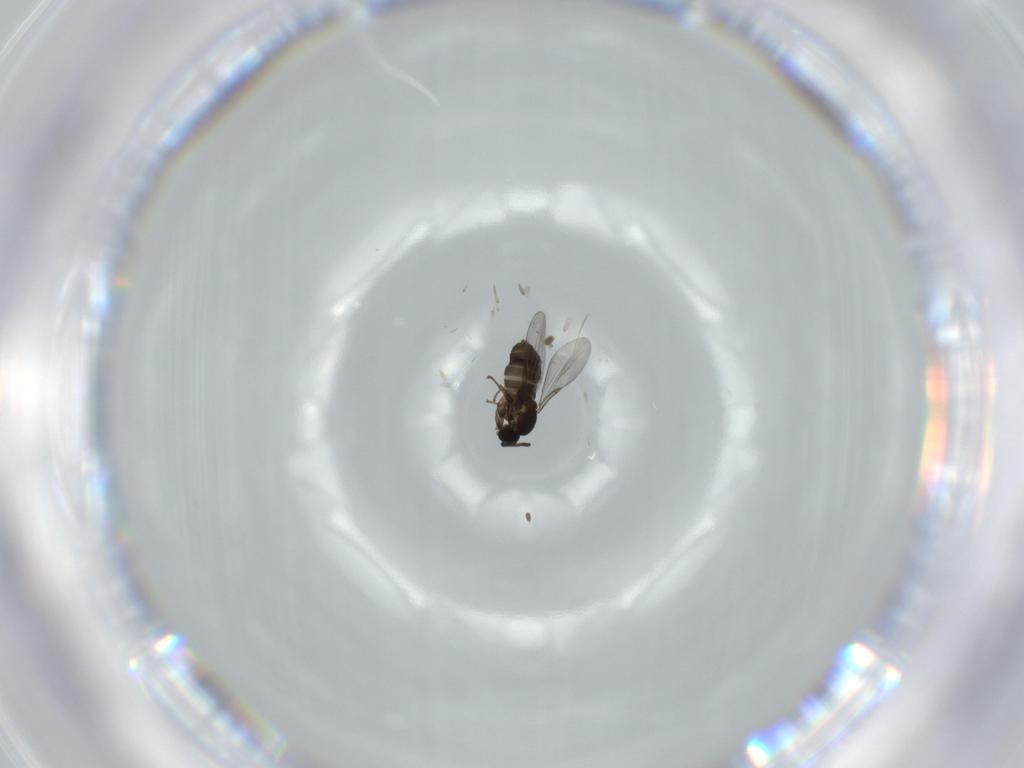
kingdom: Animalia
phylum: Arthropoda
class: Insecta
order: Diptera
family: Scatopsidae
